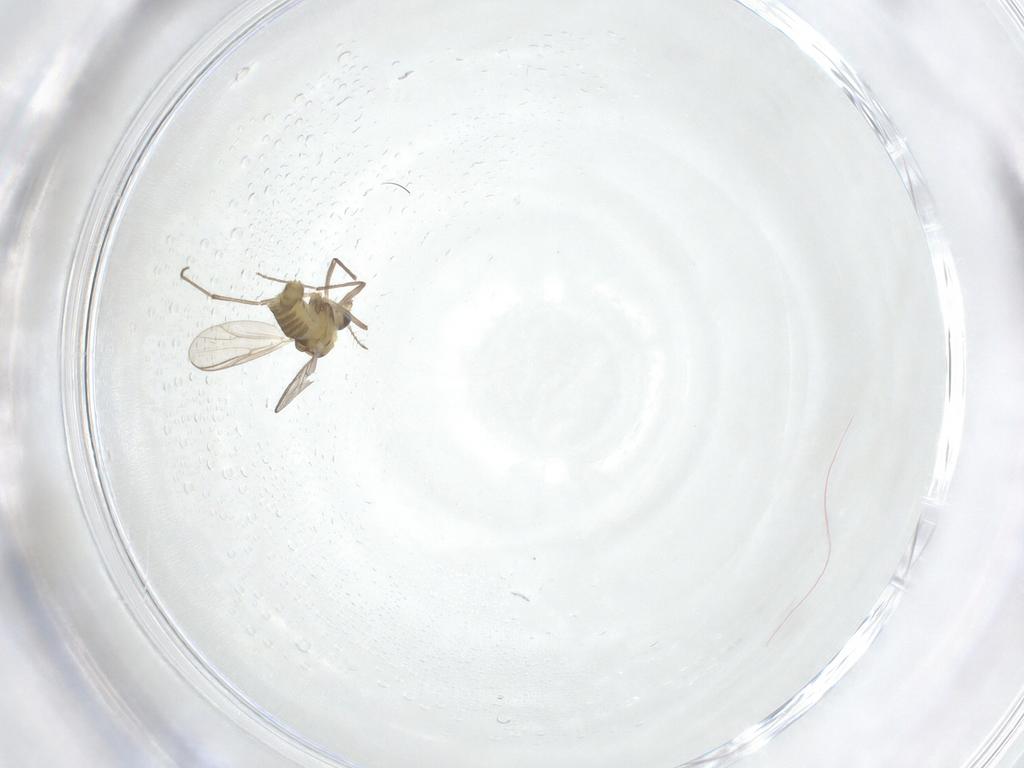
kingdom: Animalia
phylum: Arthropoda
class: Insecta
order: Diptera
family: Chironomidae
